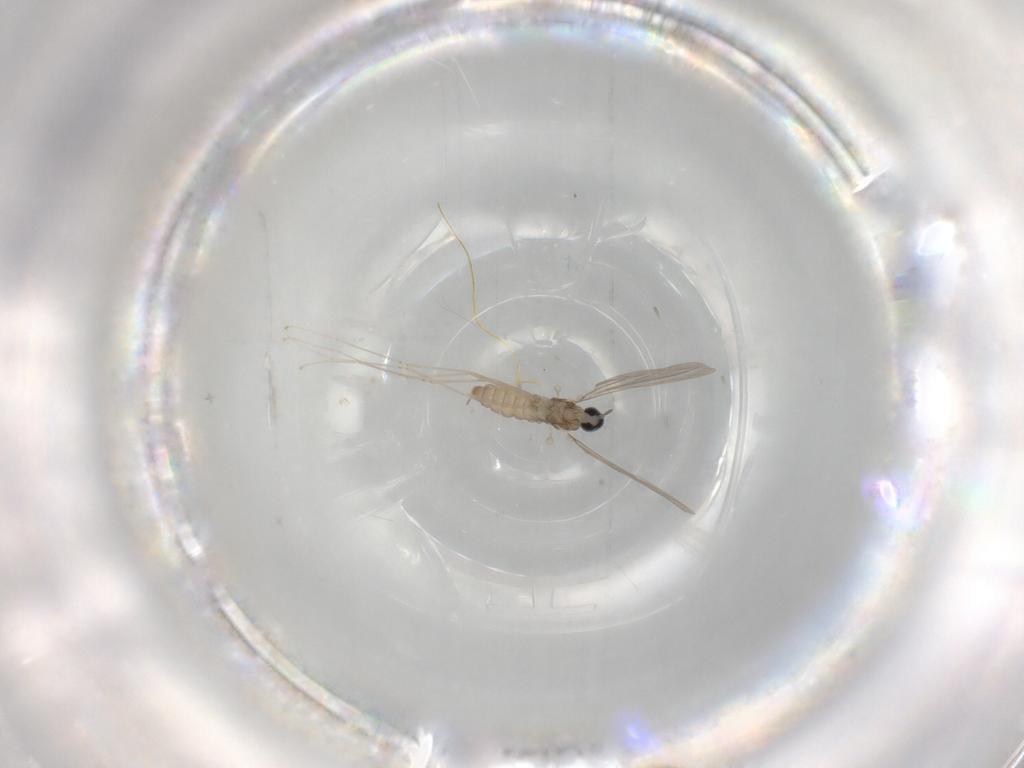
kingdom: Animalia
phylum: Arthropoda
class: Insecta
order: Diptera
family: Cecidomyiidae
